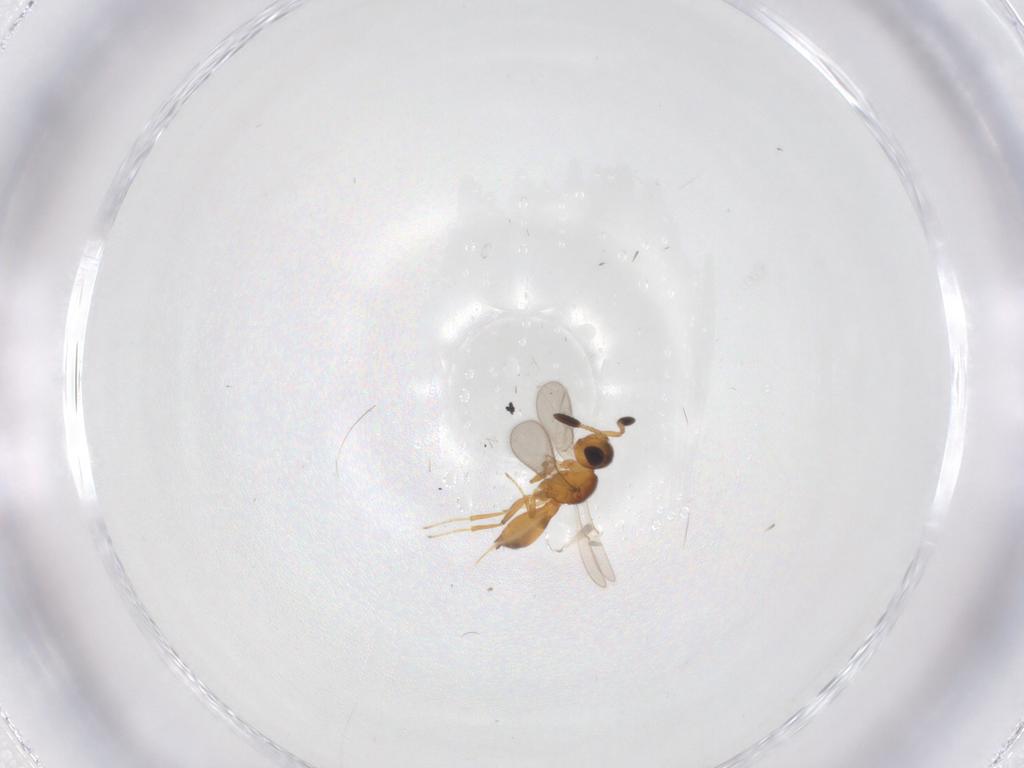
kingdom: Animalia
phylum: Arthropoda
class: Insecta
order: Hymenoptera
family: Scelionidae
